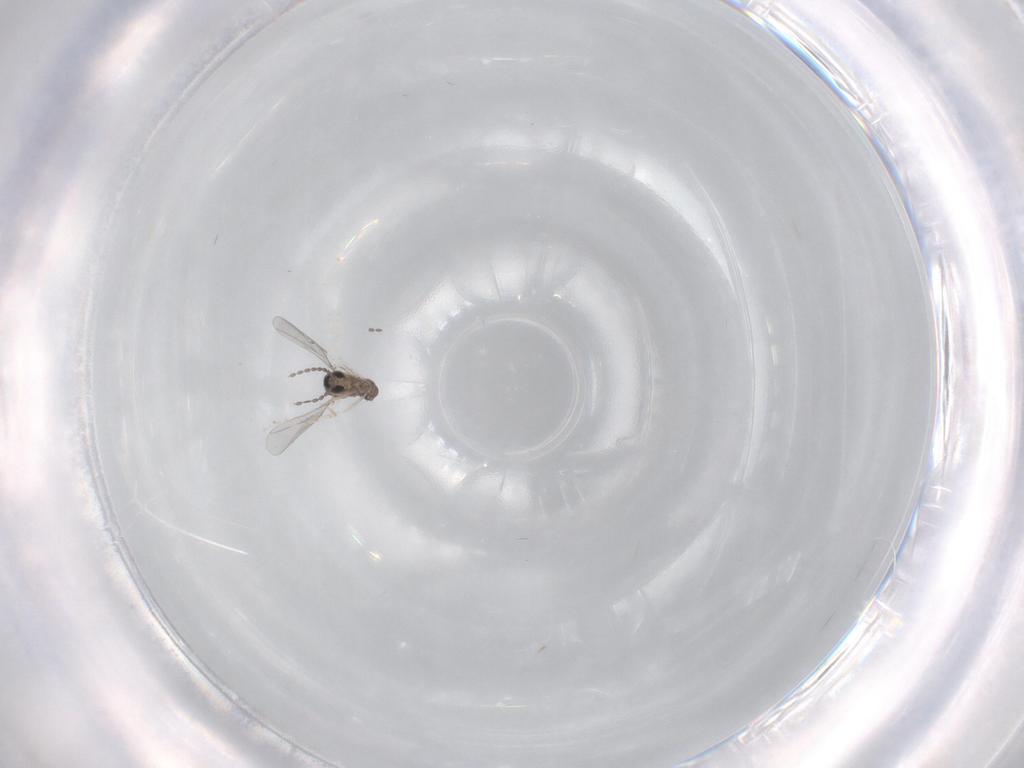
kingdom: Animalia
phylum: Arthropoda
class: Insecta
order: Diptera
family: Cecidomyiidae
